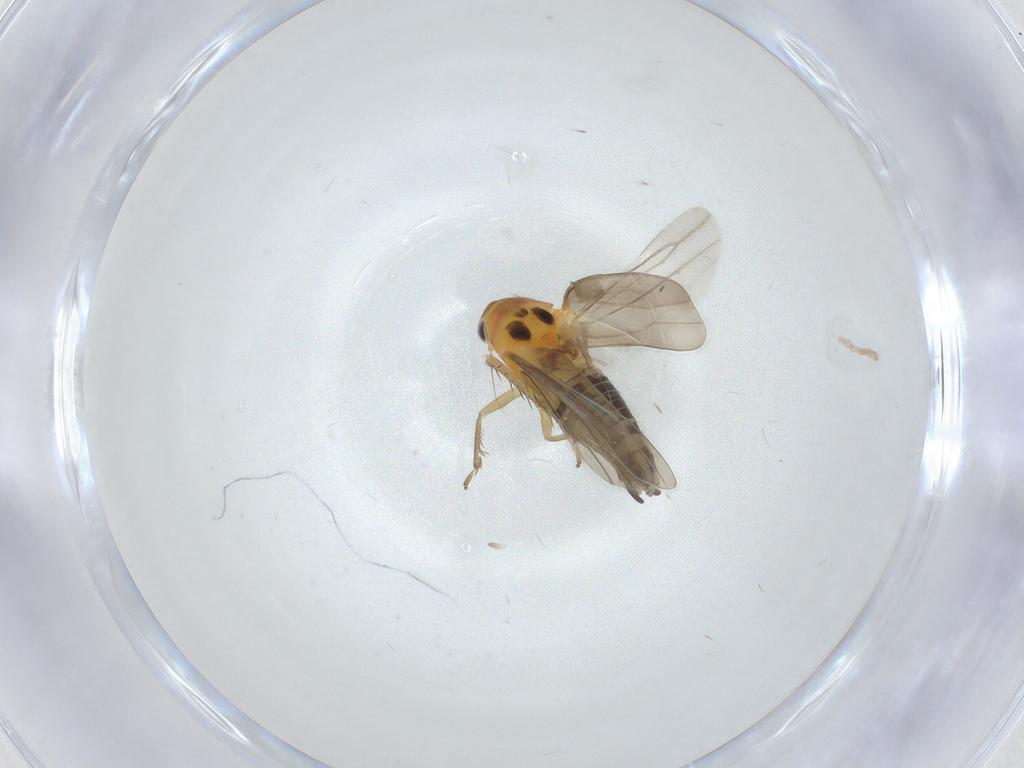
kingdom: Animalia
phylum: Arthropoda
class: Insecta
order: Hemiptera
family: Cicadellidae
